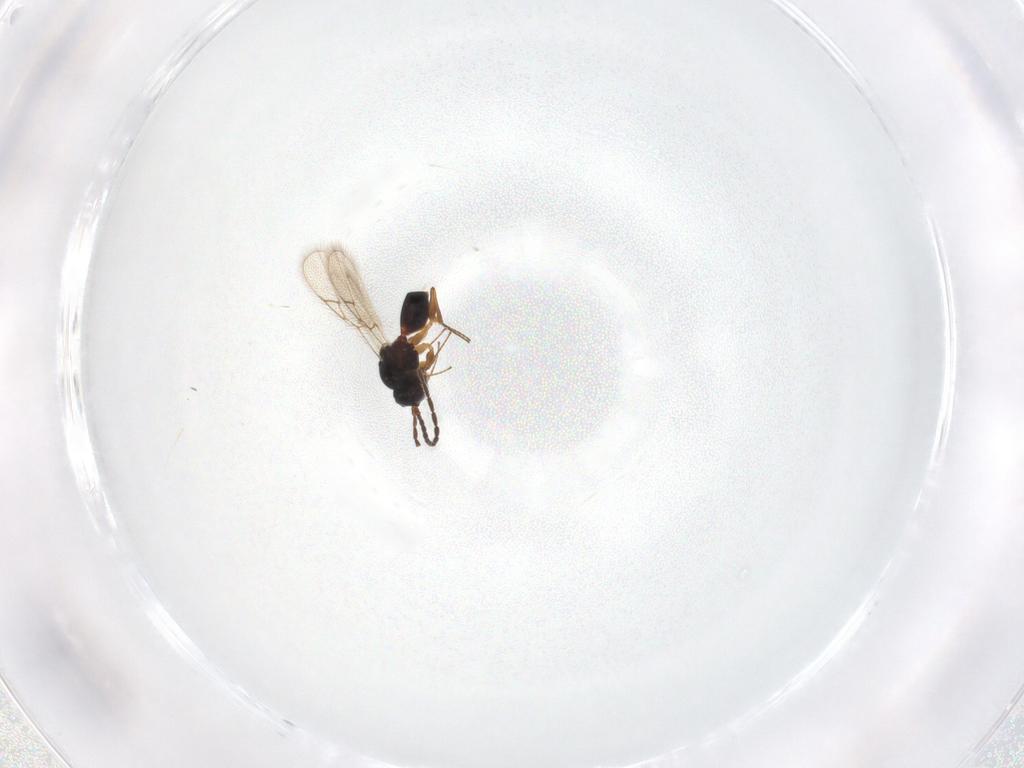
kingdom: Animalia
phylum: Arthropoda
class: Insecta
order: Hymenoptera
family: Figitidae
